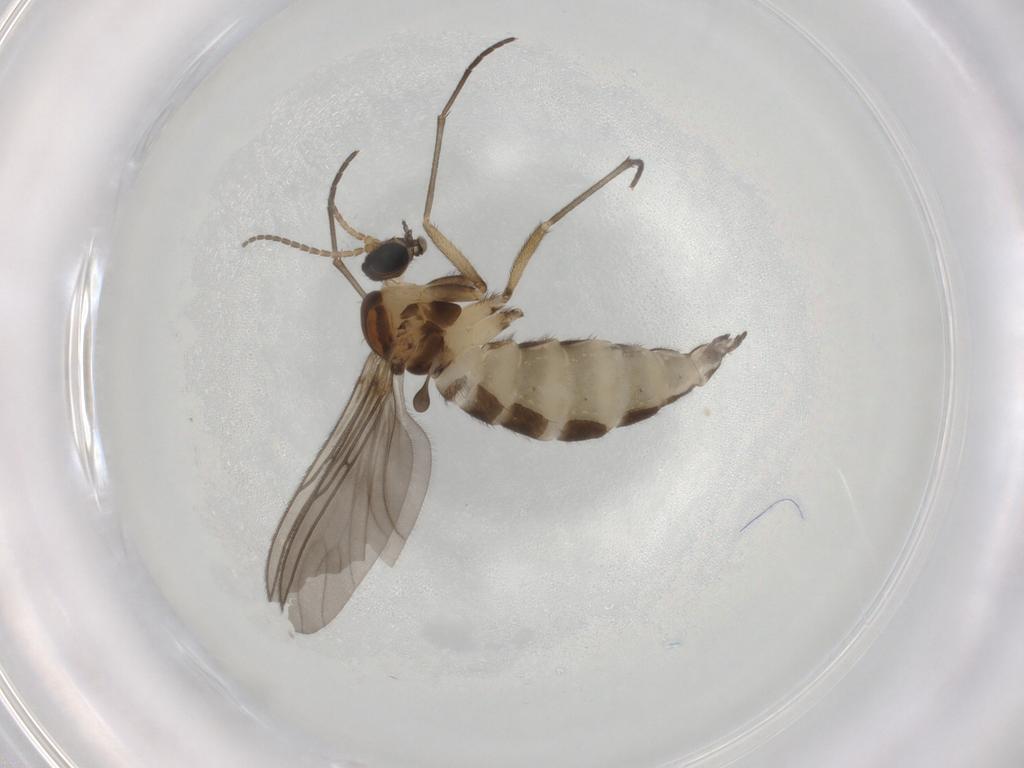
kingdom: Animalia
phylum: Arthropoda
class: Insecta
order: Diptera
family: Sciaridae
